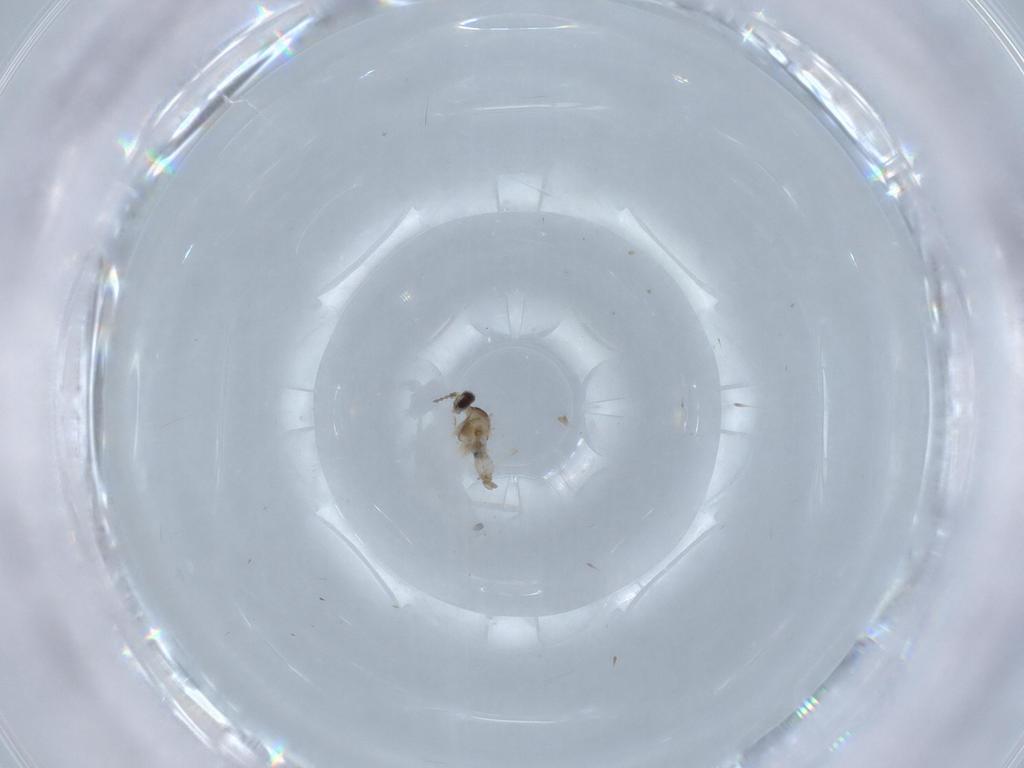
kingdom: Animalia
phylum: Arthropoda
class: Insecta
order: Diptera
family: Cecidomyiidae
